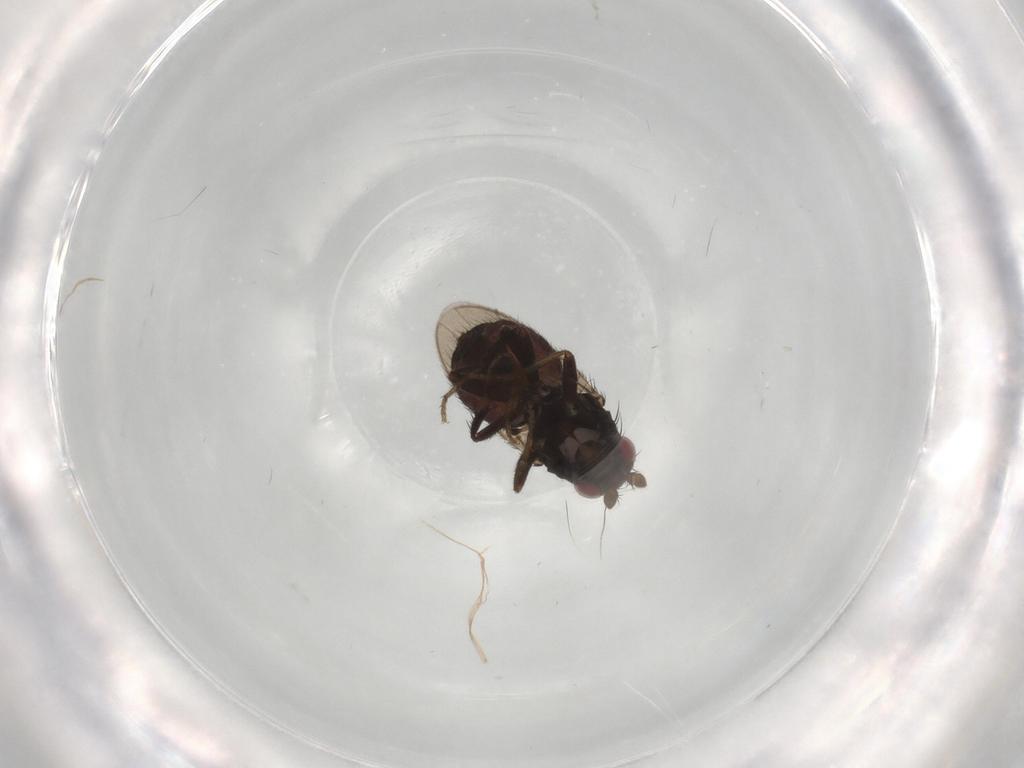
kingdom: Animalia
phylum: Arthropoda
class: Insecta
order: Diptera
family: Sphaeroceridae
